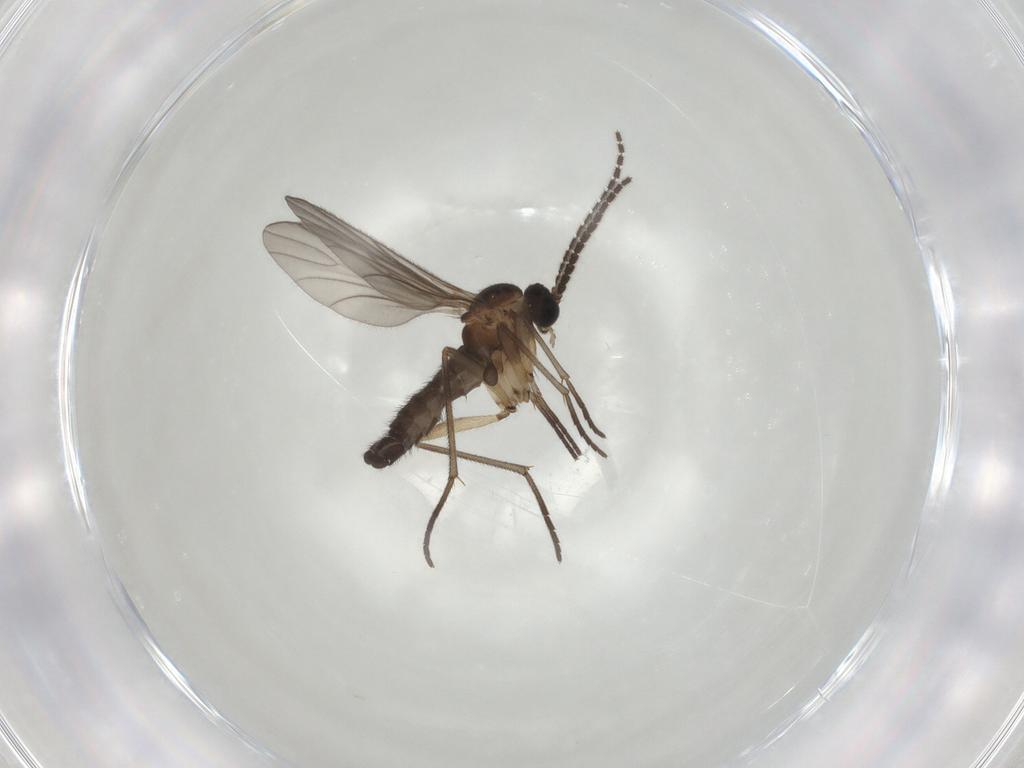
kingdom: Animalia
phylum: Arthropoda
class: Insecta
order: Diptera
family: Sciaridae
